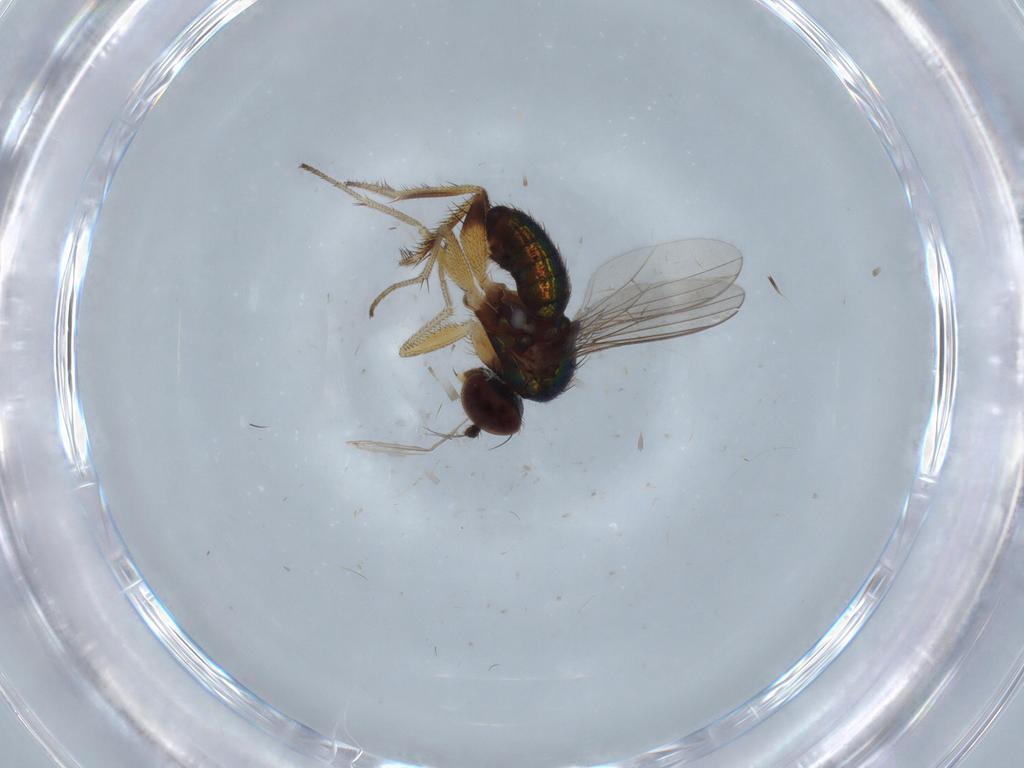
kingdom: Animalia
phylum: Arthropoda
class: Insecta
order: Diptera
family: Chironomidae
